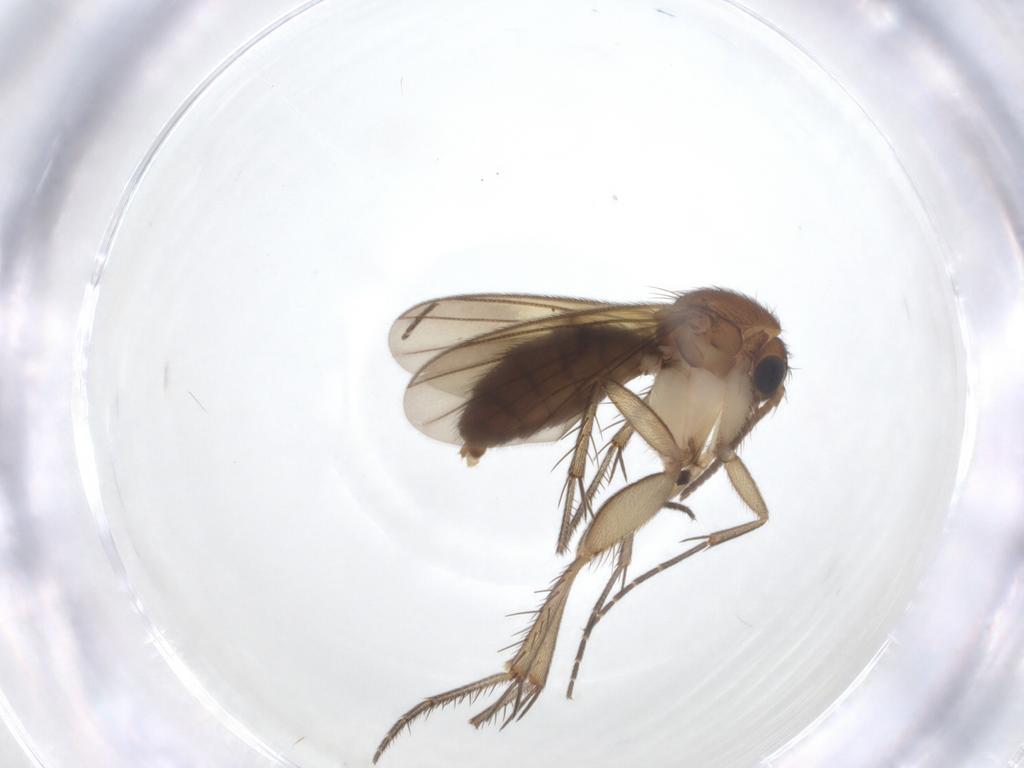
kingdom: Animalia
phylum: Arthropoda
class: Insecta
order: Diptera
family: Mycetophilidae
